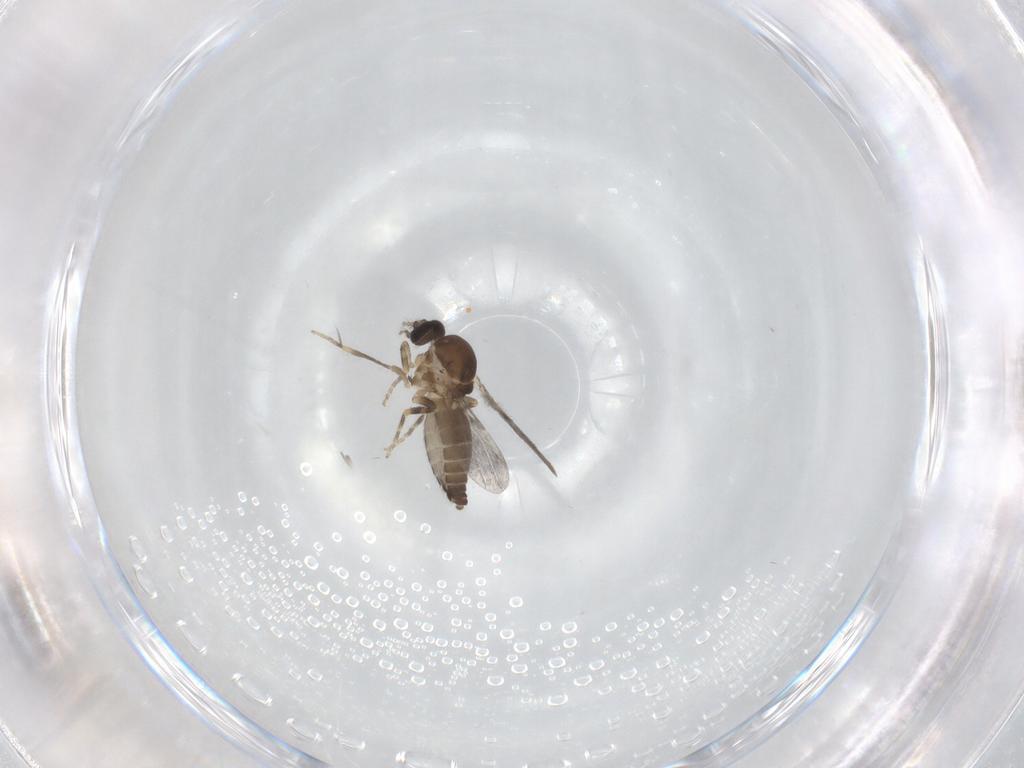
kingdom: Animalia
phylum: Arthropoda
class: Insecta
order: Diptera
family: Ceratopogonidae
